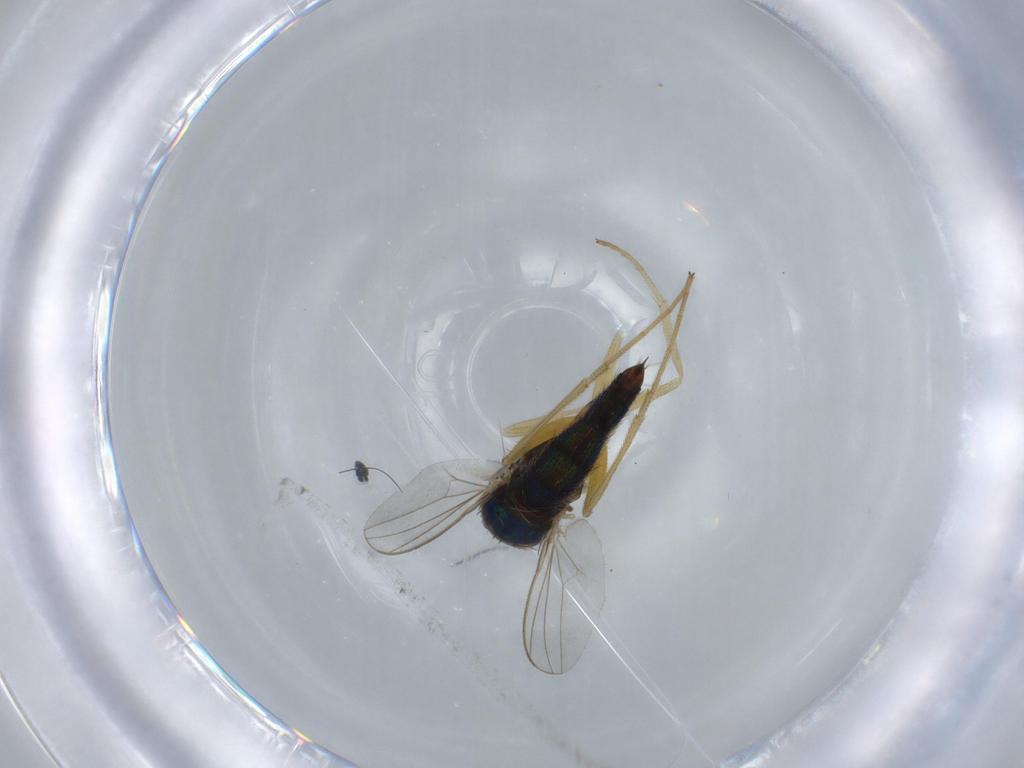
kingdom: Animalia
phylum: Arthropoda
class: Insecta
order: Diptera
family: Dolichopodidae
